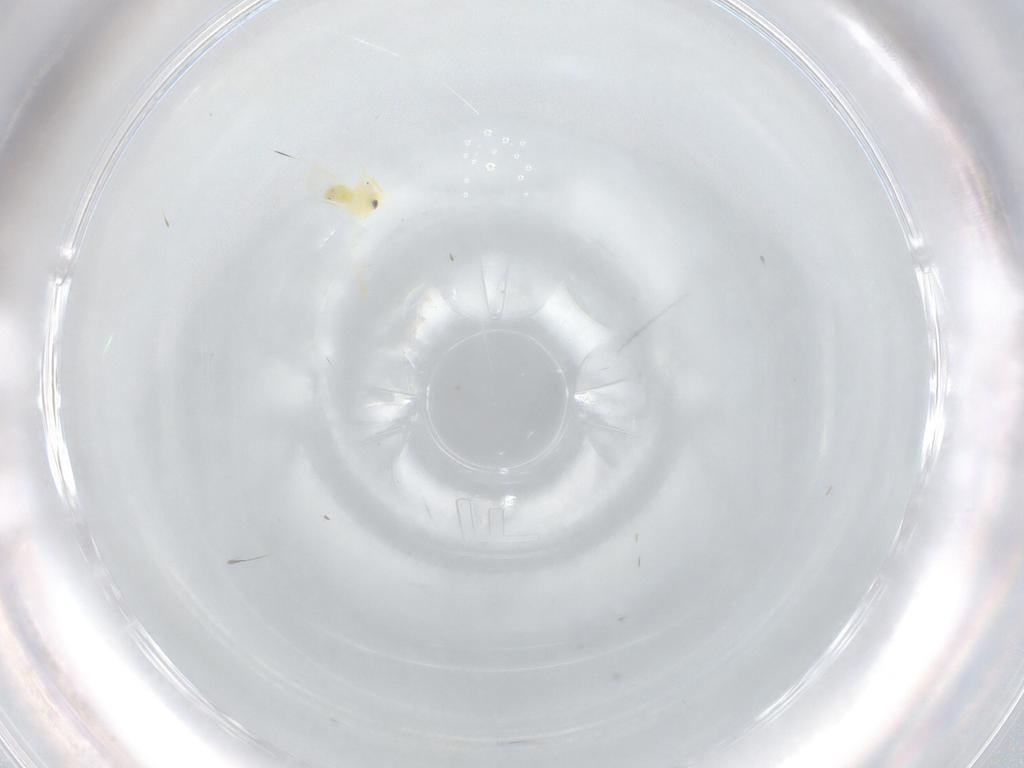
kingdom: Animalia
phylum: Arthropoda
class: Insecta
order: Hemiptera
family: Aleyrodidae
